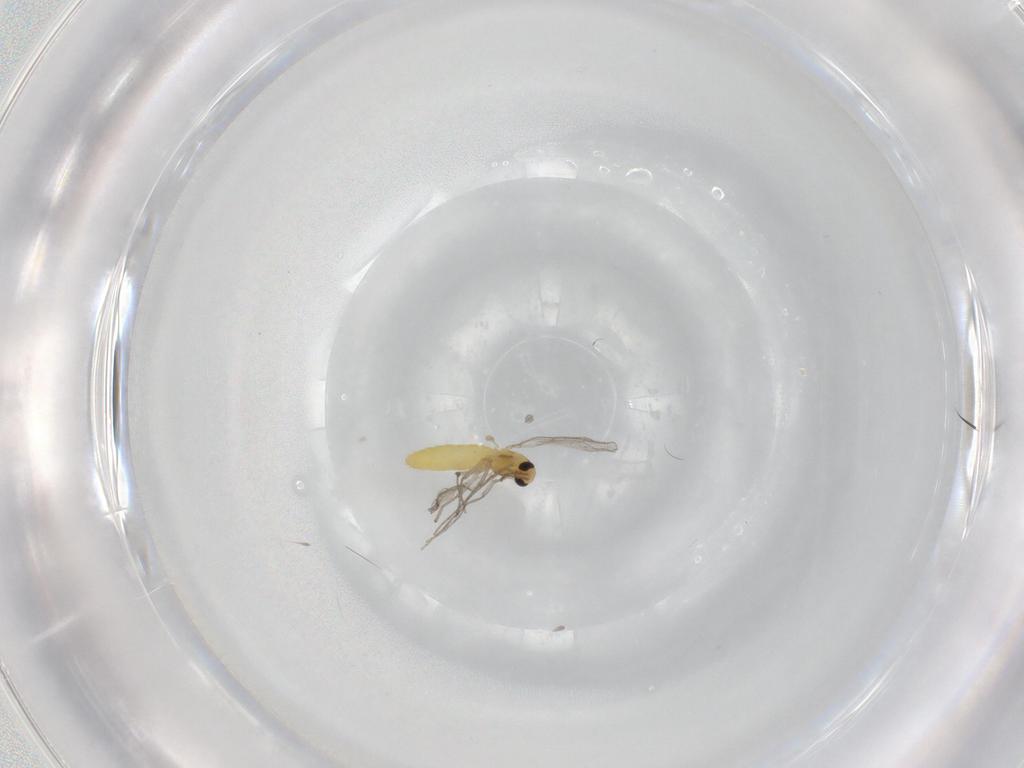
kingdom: Animalia
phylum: Arthropoda
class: Insecta
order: Diptera
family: Chironomidae
